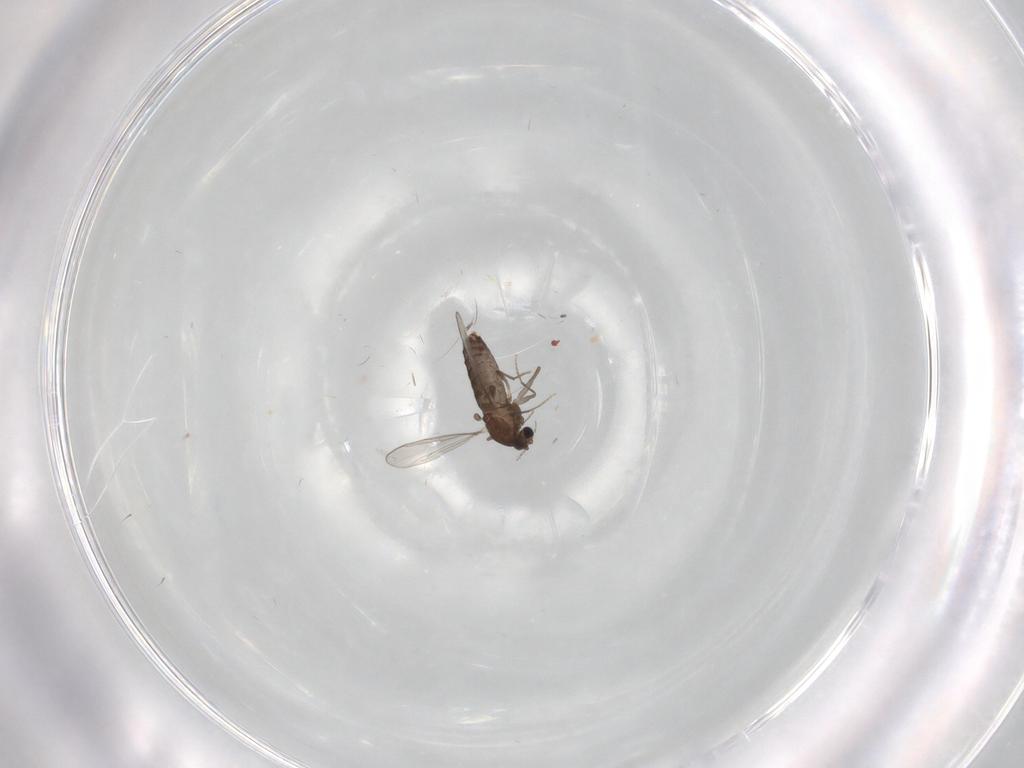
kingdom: Animalia
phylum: Arthropoda
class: Insecta
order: Diptera
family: Chironomidae
